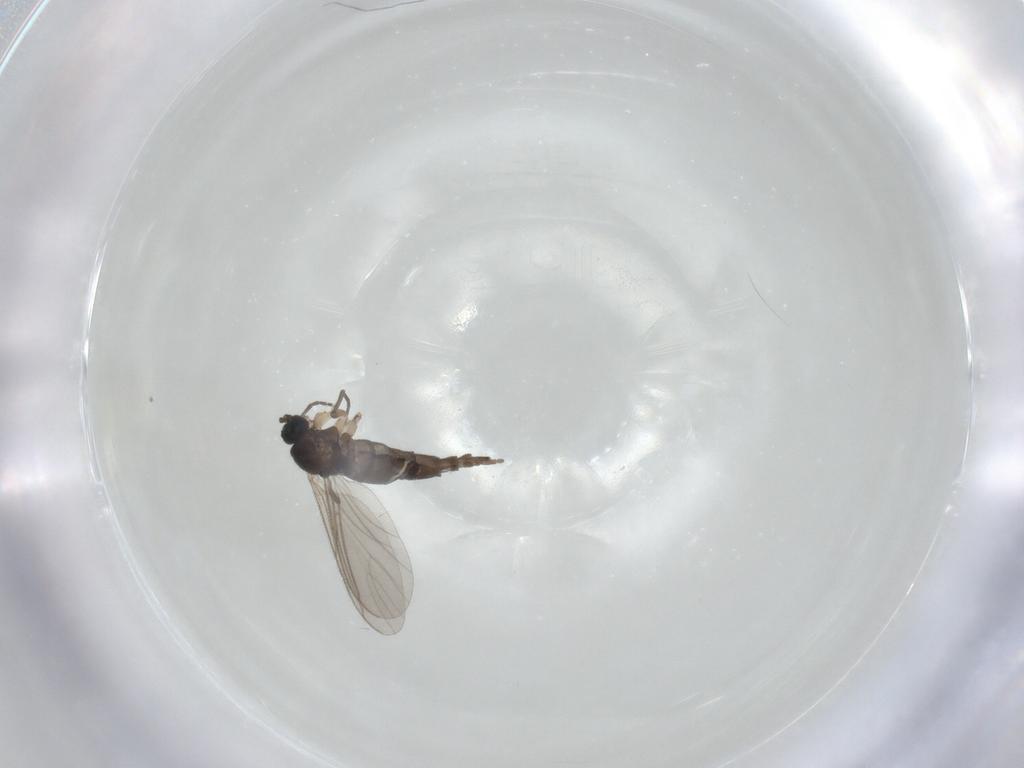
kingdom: Animalia
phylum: Arthropoda
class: Insecta
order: Diptera
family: Sciaridae
